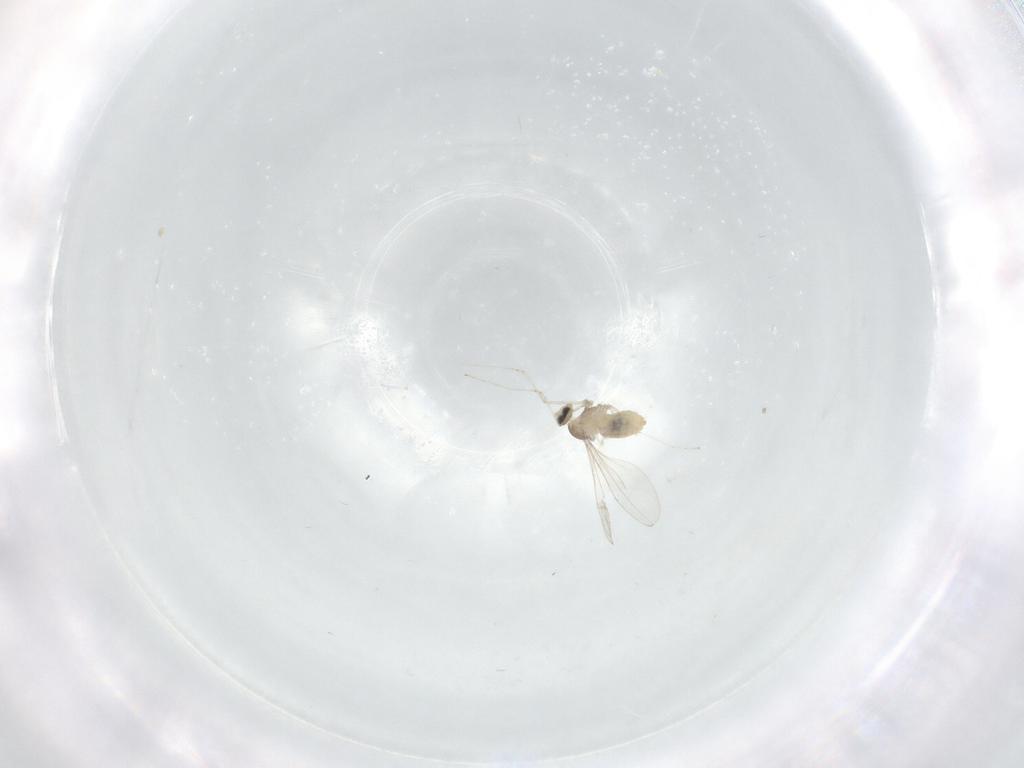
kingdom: Animalia
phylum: Arthropoda
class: Insecta
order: Diptera
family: Cecidomyiidae
